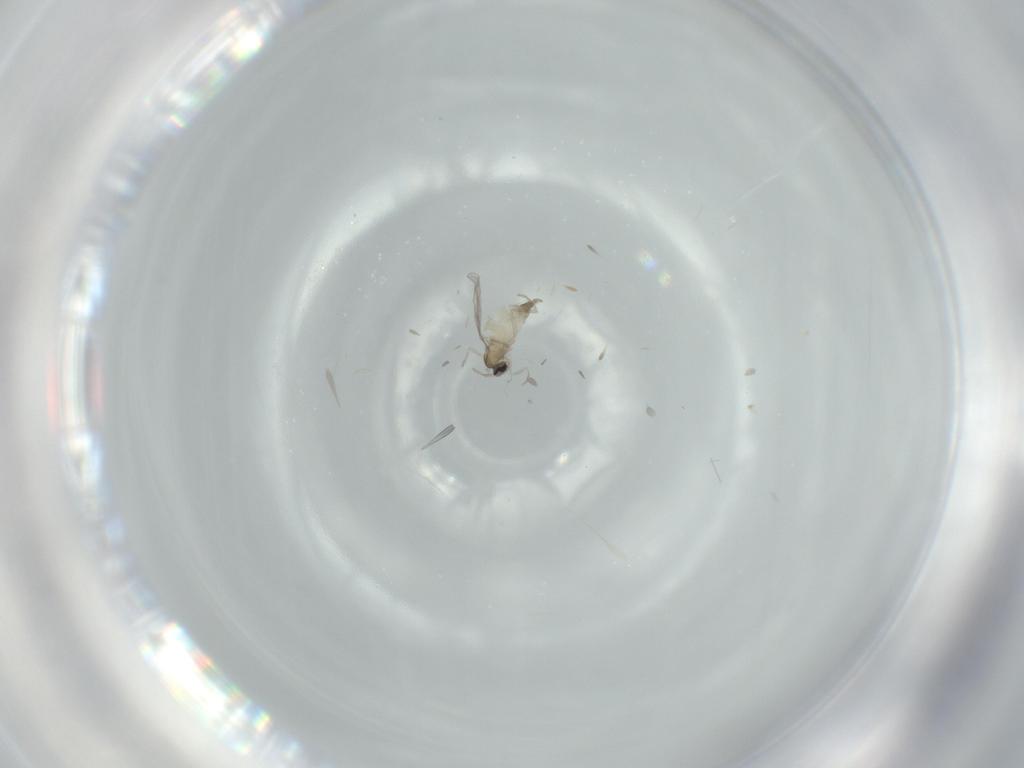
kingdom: Animalia
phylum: Arthropoda
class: Insecta
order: Diptera
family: Cecidomyiidae
